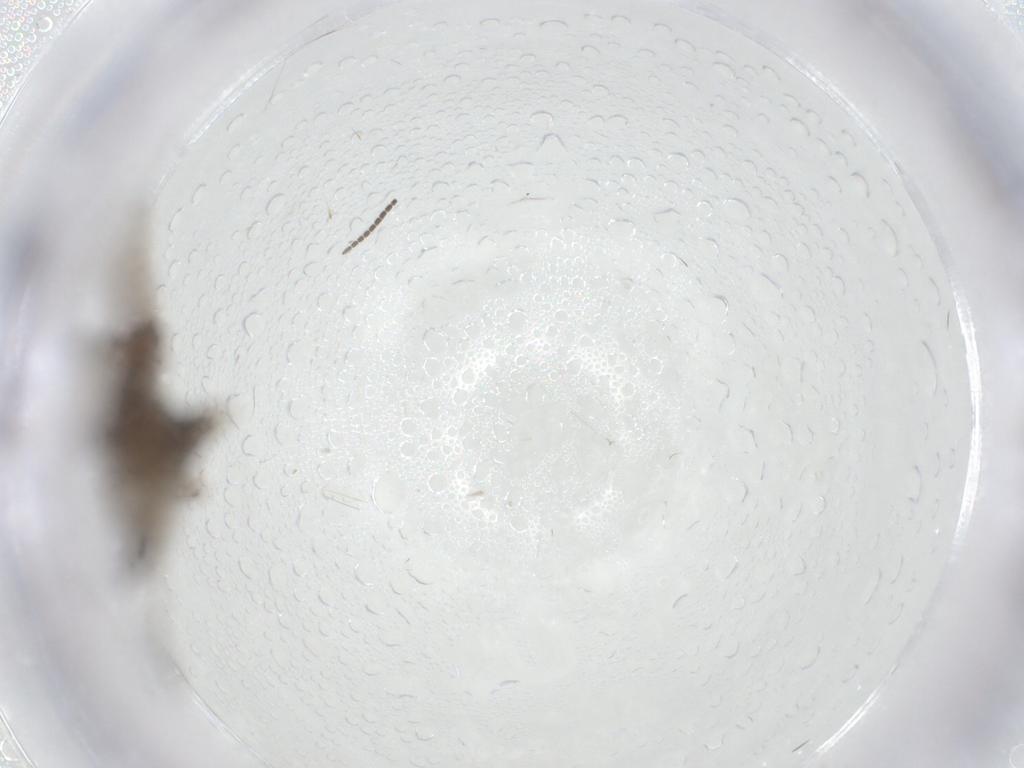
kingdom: Animalia
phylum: Arthropoda
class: Insecta
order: Diptera
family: Sciaridae
